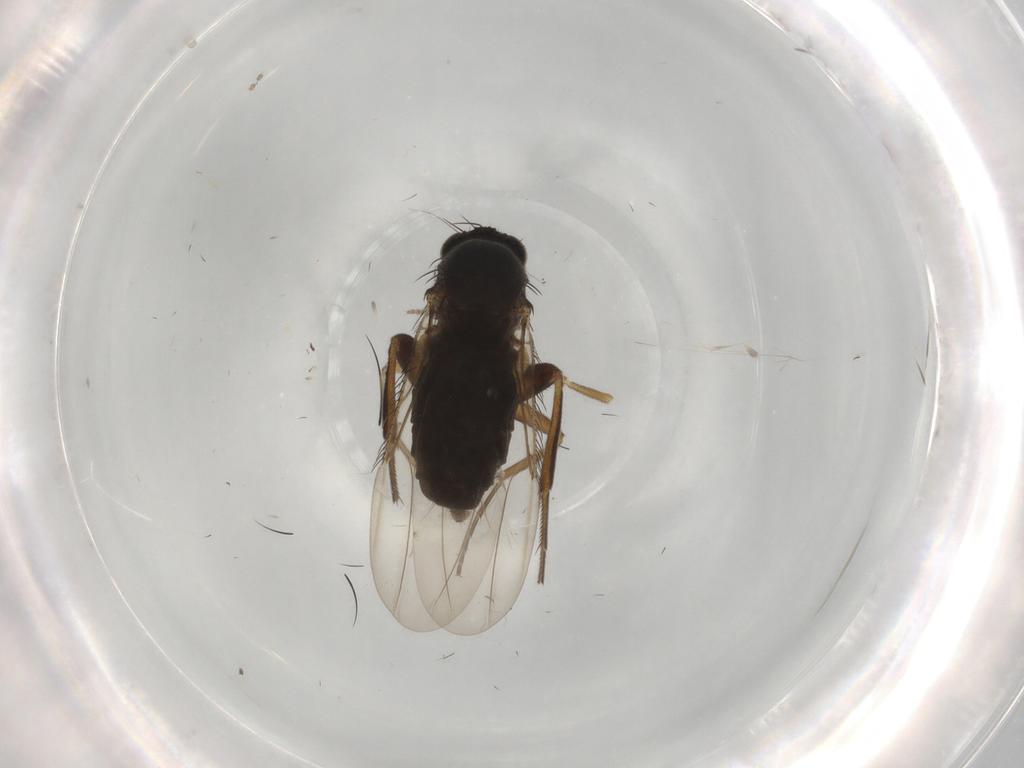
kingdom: Animalia
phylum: Arthropoda
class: Insecta
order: Diptera
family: Phoridae
